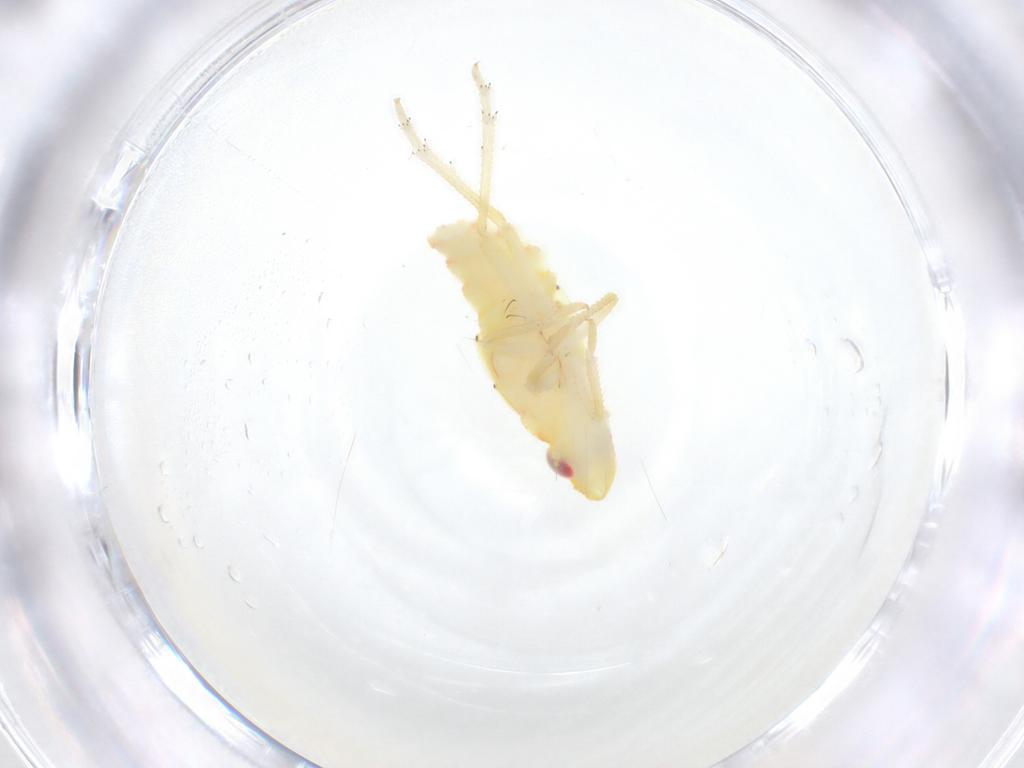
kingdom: Animalia
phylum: Arthropoda
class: Insecta
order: Hemiptera
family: Tropiduchidae
